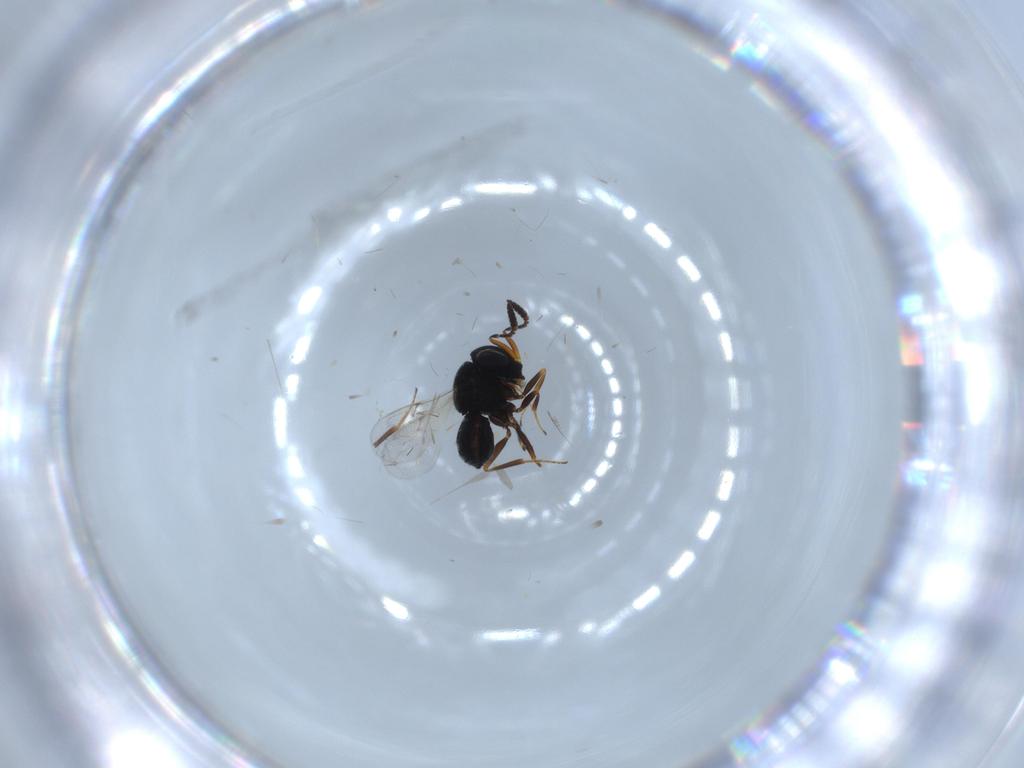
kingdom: Animalia
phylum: Arthropoda
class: Insecta
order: Hymenoptera
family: Scelionidae
